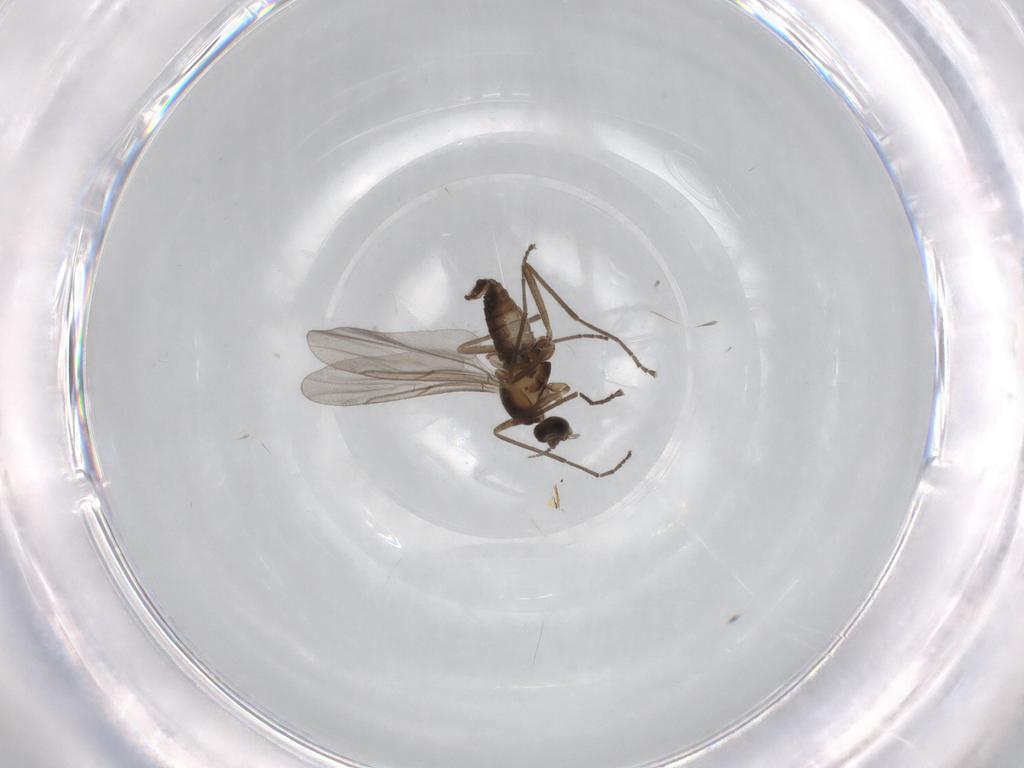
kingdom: Animalia
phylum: Arthropoda
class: Insecta
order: Diptera
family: Cecidomyiidae
